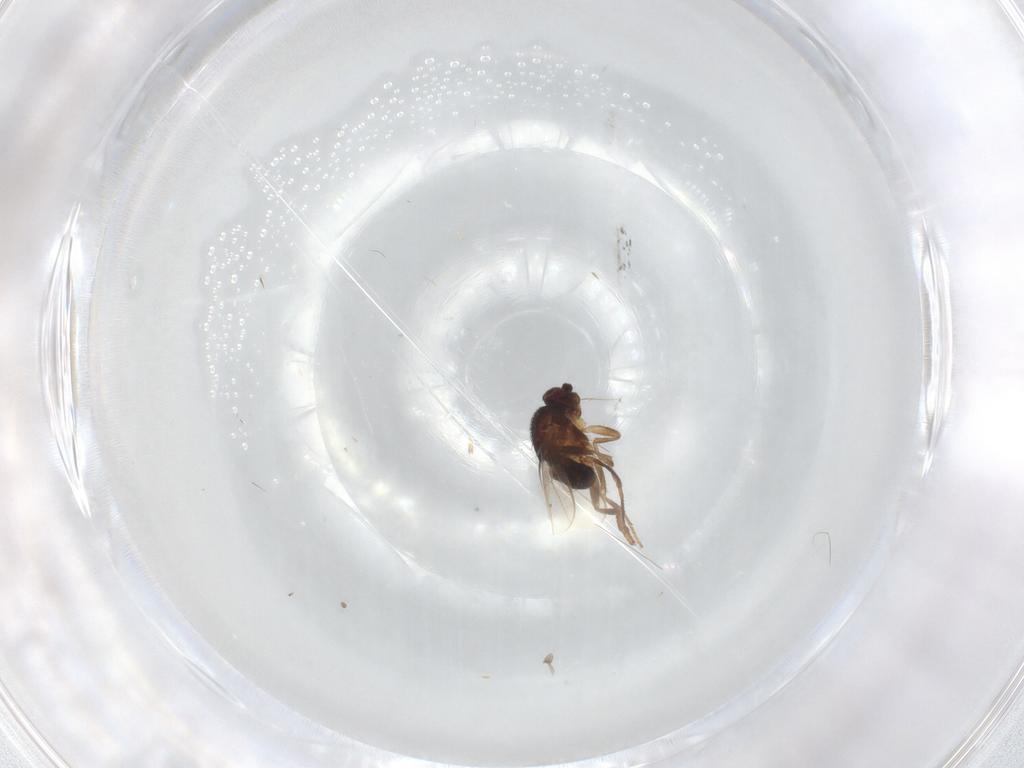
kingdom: Animalia
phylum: Arthropoda
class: Insecta
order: Diptera
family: Sphaeroceridae
